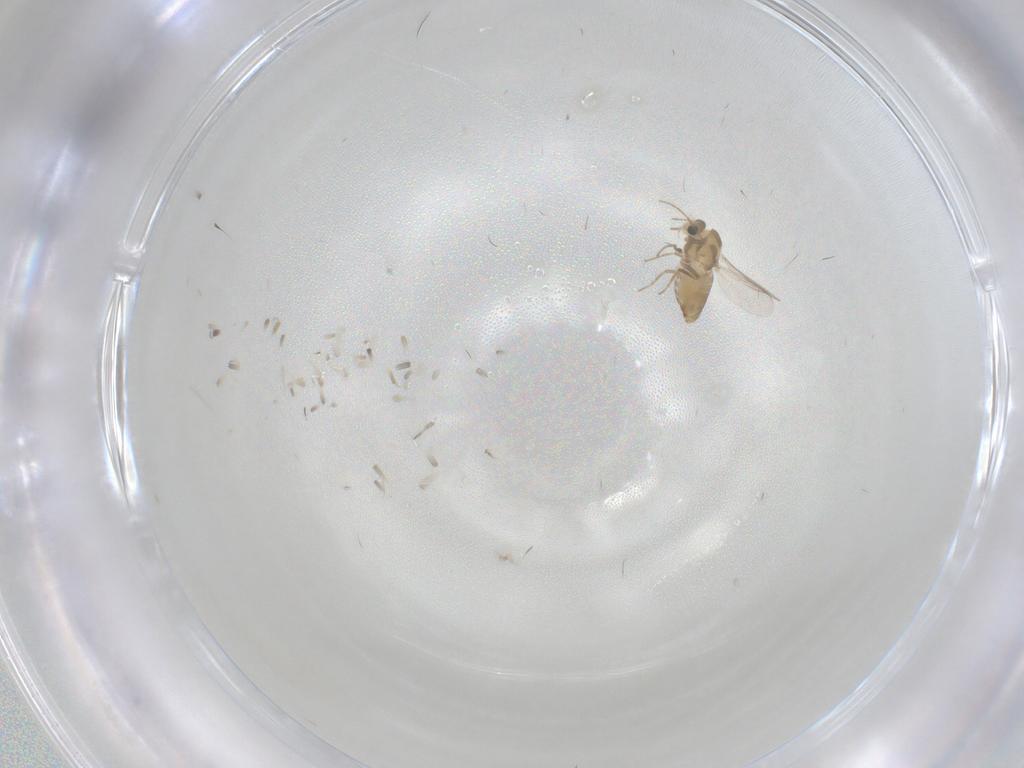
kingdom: Animalia
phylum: Arthropoda
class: Insecta
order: Diptera
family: Chironomidae
